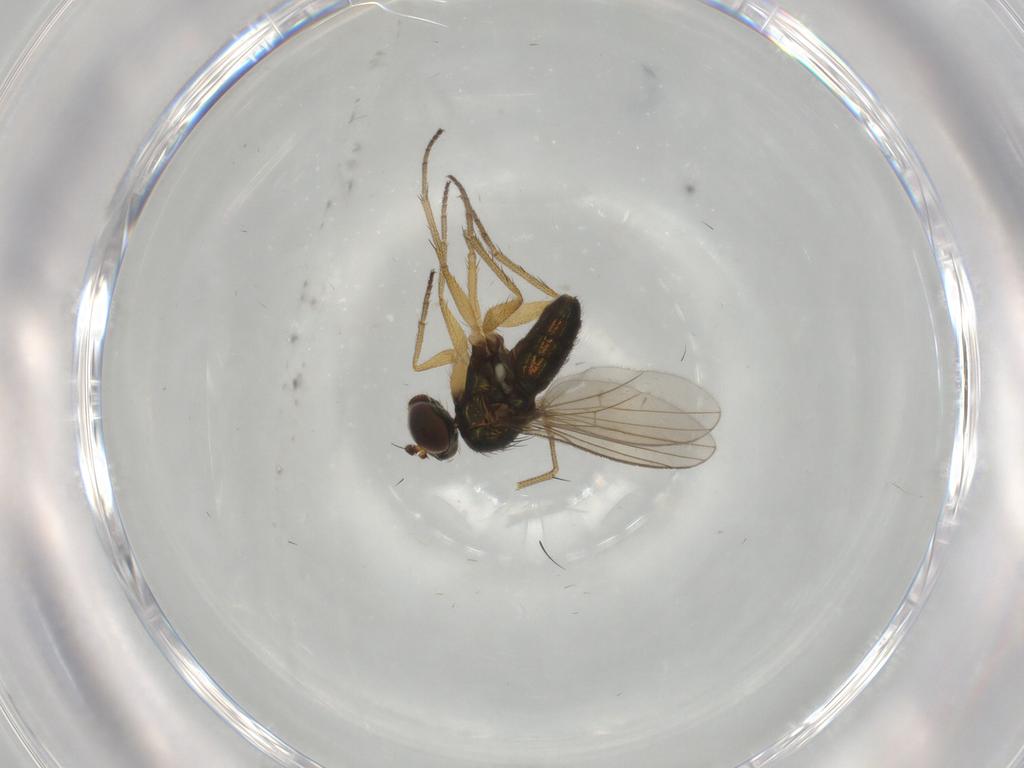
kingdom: Animalia
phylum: Arthropoda
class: Insecta
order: Diptera
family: Dolichopodidae
